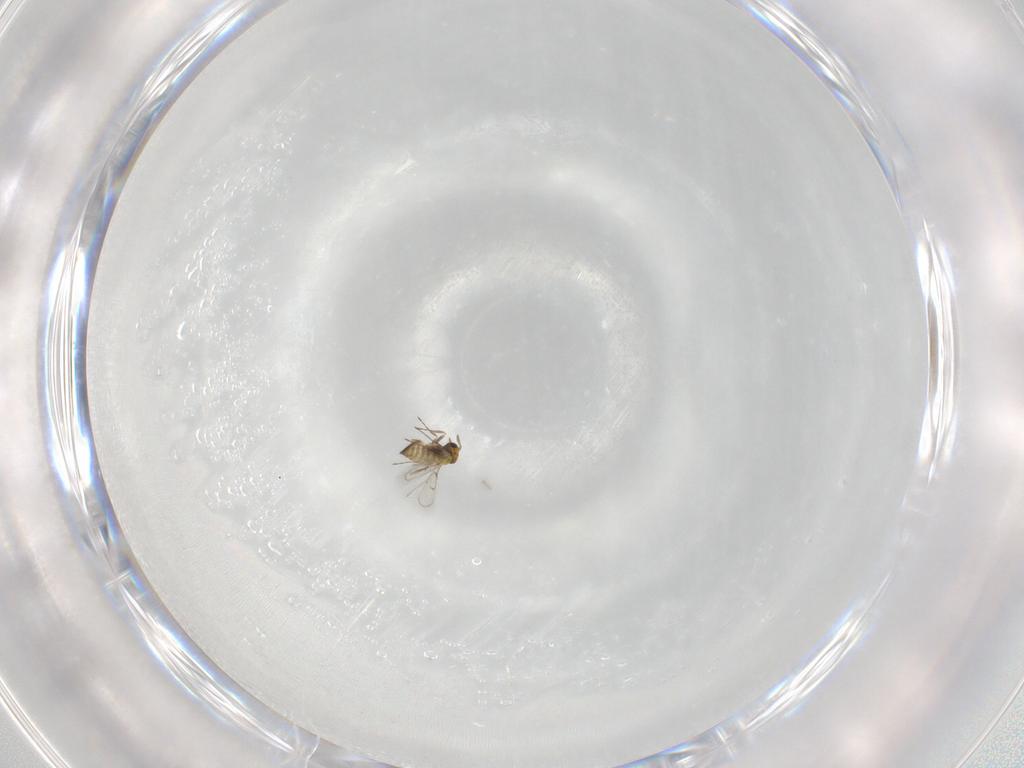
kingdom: Animalia
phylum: Arthropoda
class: Insecta
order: Hymenoptera
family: Trichogrammatidae
